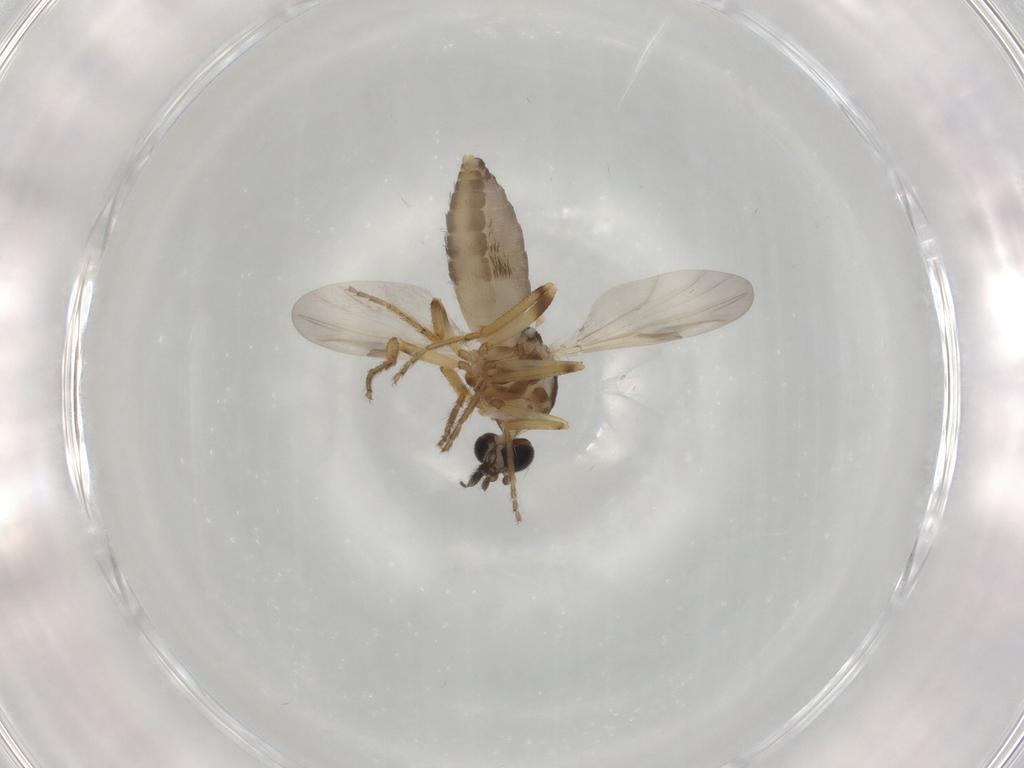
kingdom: Animalia
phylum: Arthropoda
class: Insecta
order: Diptera
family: Ceratopogonidae
